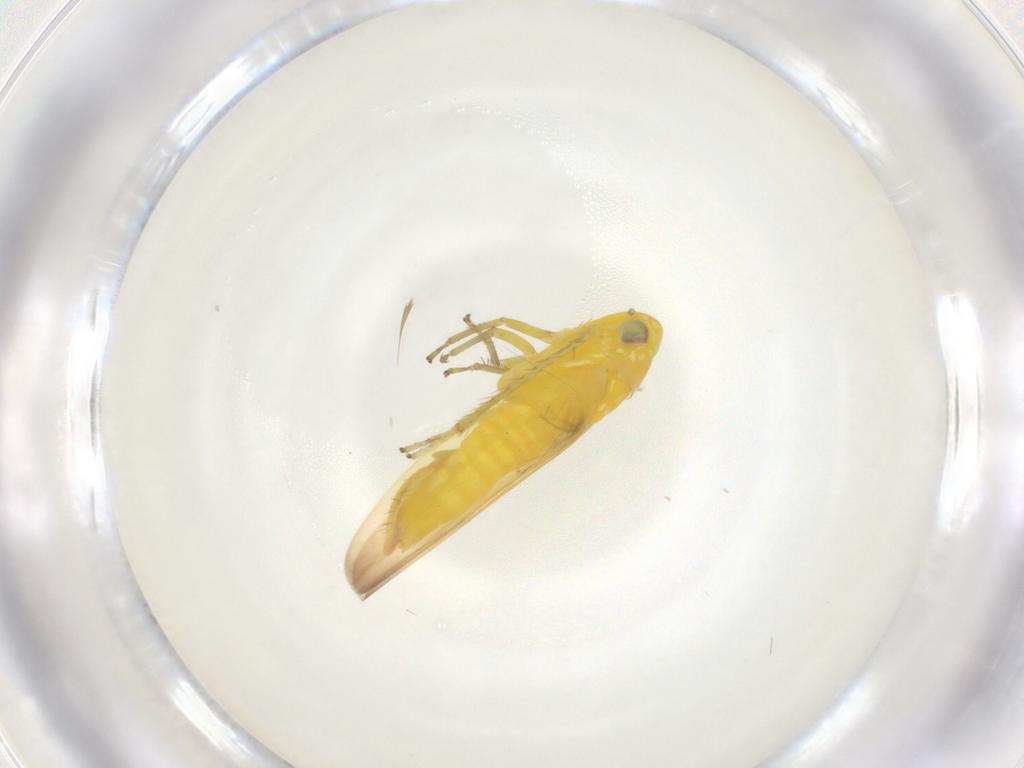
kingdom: Animalia
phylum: Arthropoda
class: Insecta
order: Hemiptera
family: Cicadellidae
